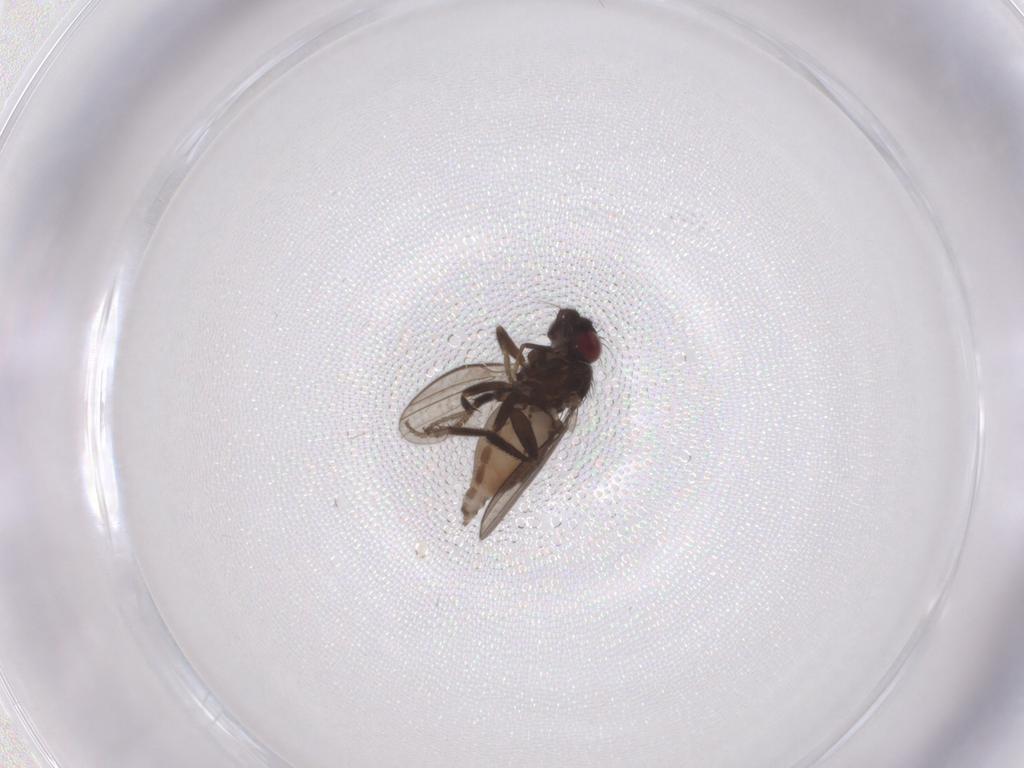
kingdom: Animalia
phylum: Arthropoda
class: Insecta
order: Diptera
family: Milichiidae
